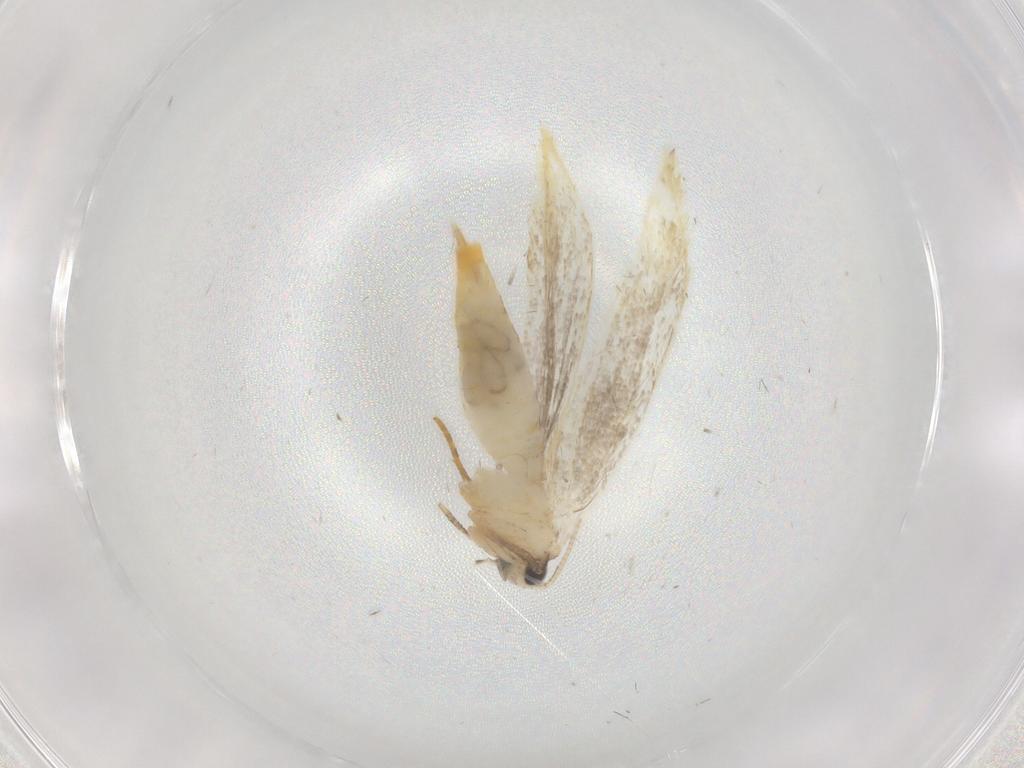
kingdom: Animalia
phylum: Arthropoda
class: Insecta
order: Lepidoptera
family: Tineidae
